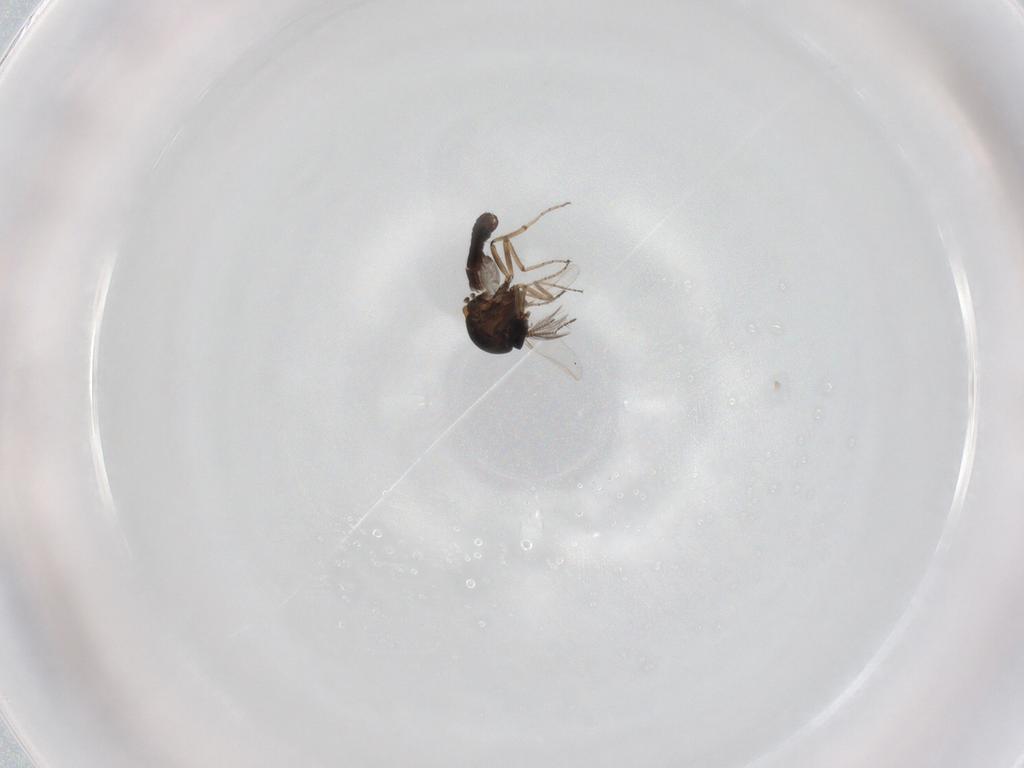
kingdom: Animalia
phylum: Arthropoda
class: Insecta
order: Diptera
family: Ceratopogonidae
